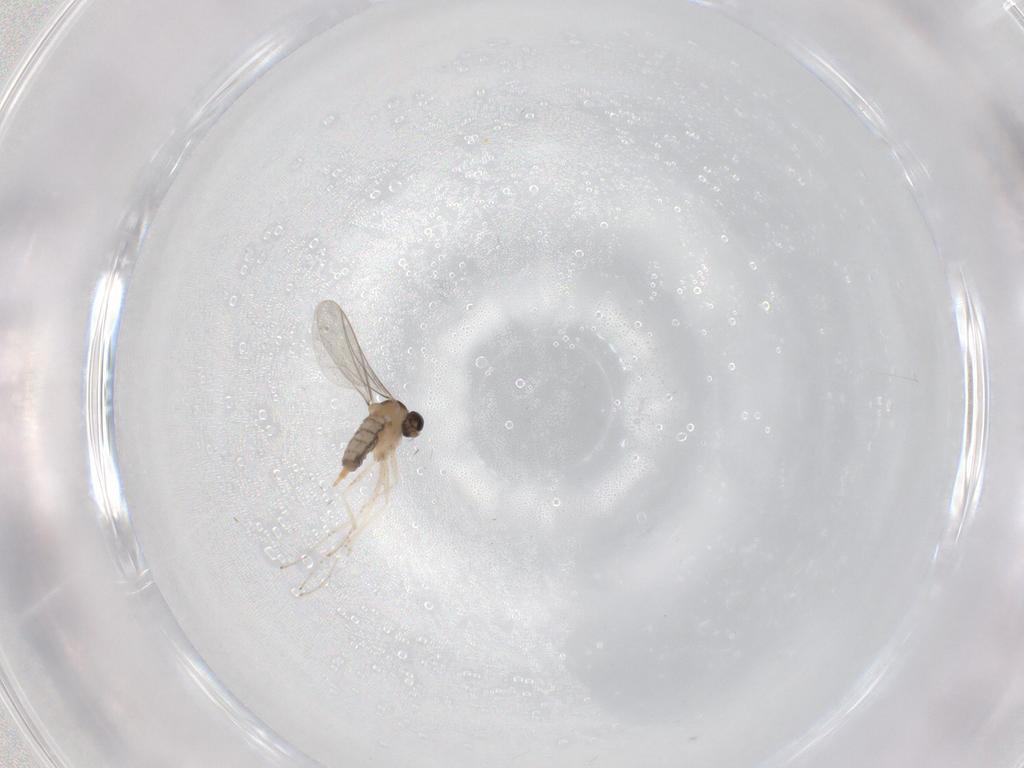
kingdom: Animalia
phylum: Arthropoda
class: Insecta
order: Diptera
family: Cecidomyiidae
